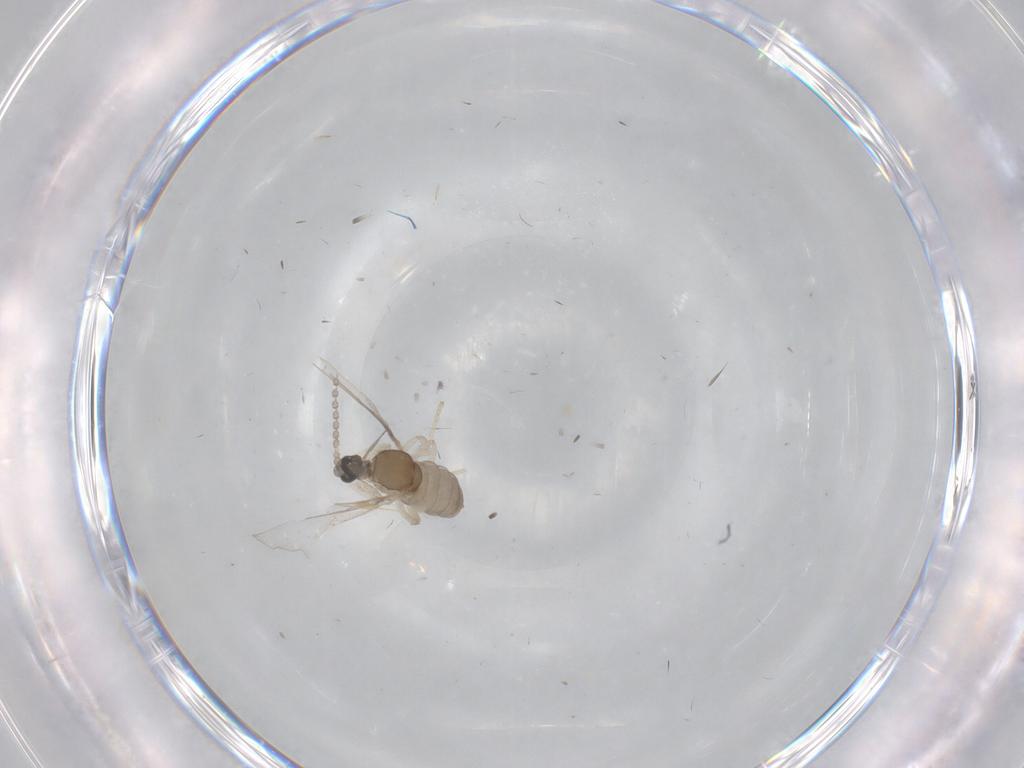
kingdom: Animalia
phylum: Arthropoda
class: Insecta
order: Diptera
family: Cecidomyiidae
